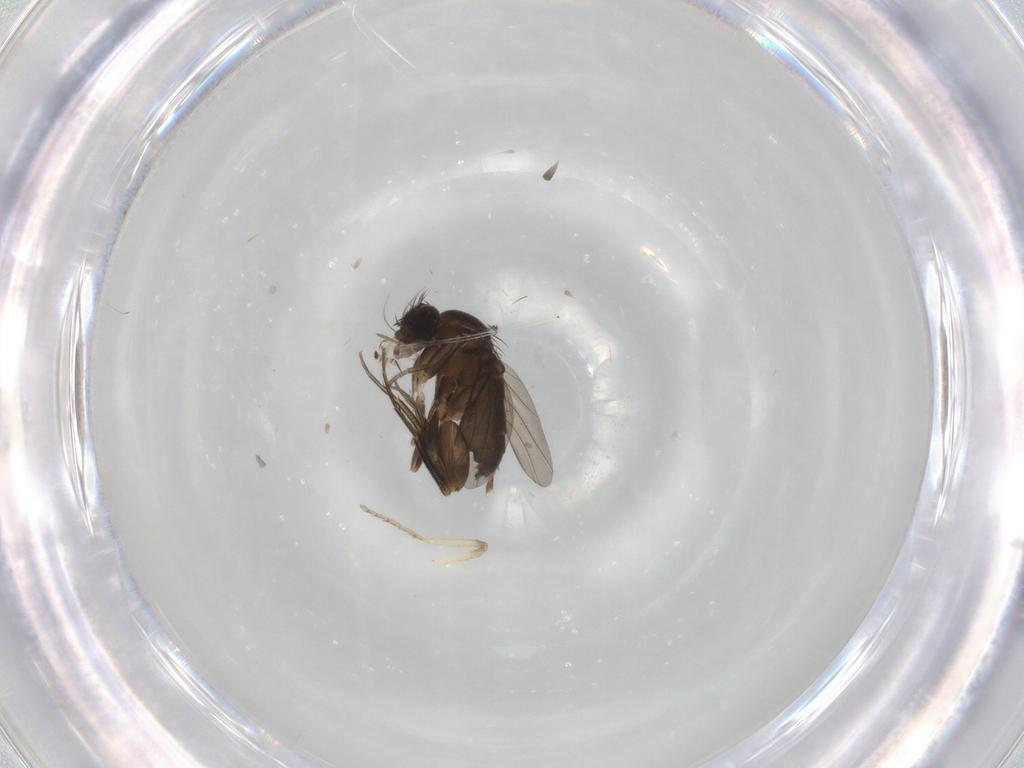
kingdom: Animalia
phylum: Arthropoda
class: Insecta
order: Diptera
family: Phoridae
